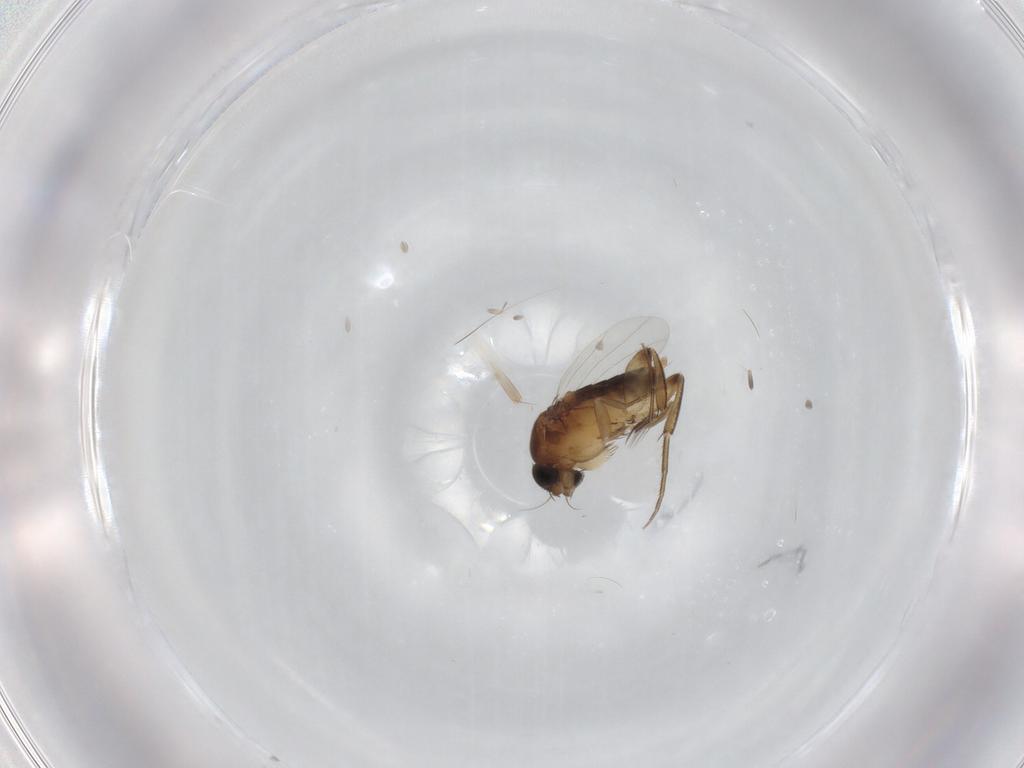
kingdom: Animalia
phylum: Arthropoda
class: Insecta
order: Diptera
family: Phoridae
